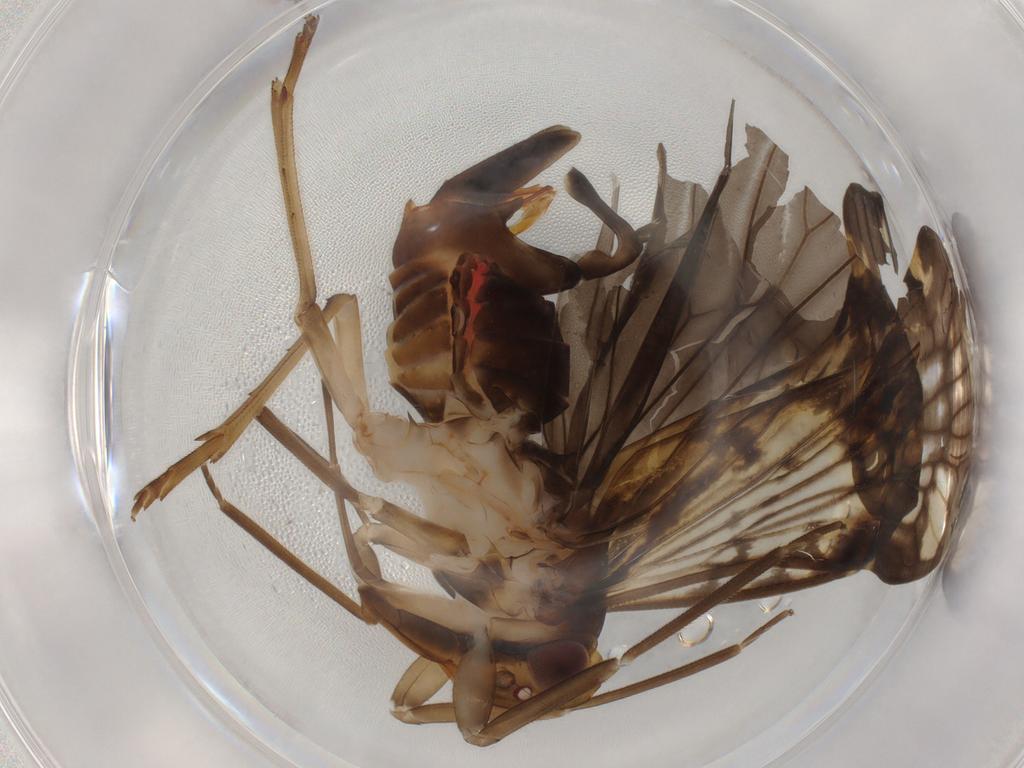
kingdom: Animalia
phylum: Arthropoda
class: Insecta
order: Hemiptera
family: Cixiidae
